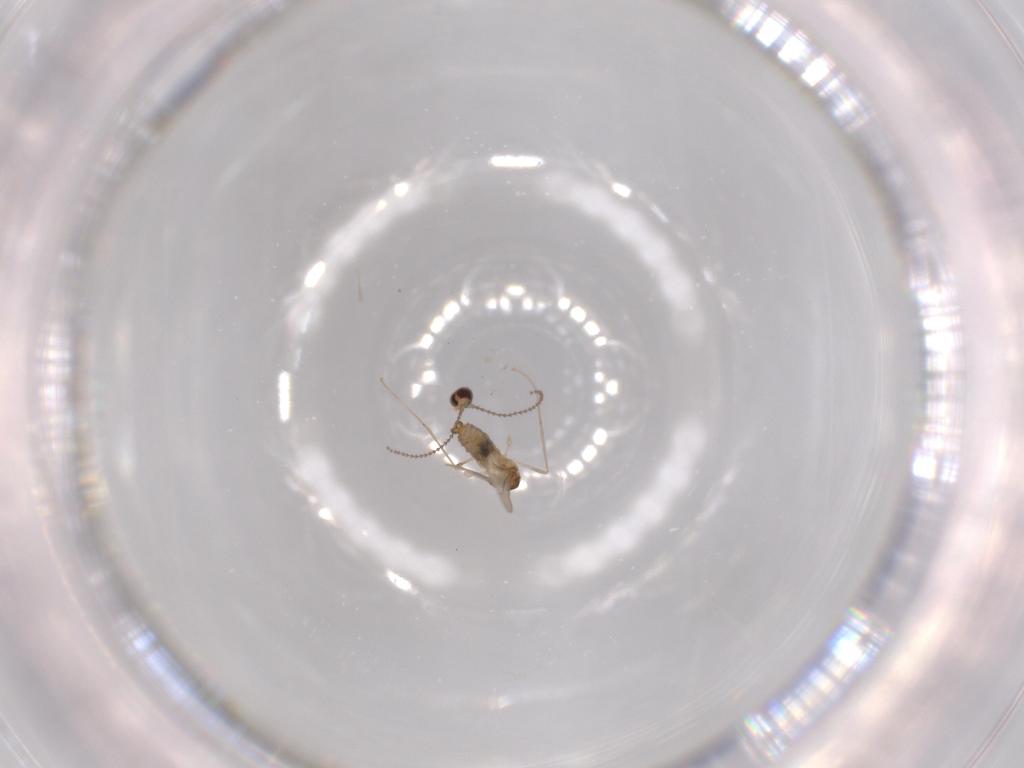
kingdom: Animalia
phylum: Arthropoda
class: Insecta
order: Diptera
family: Cecidomyiidae
